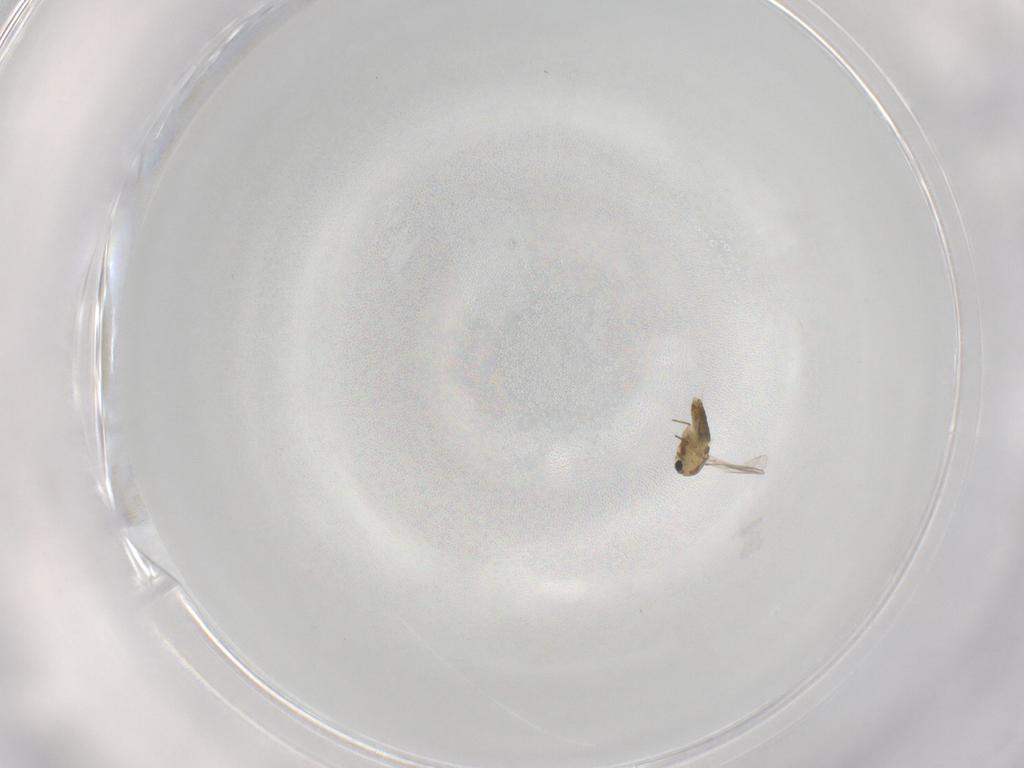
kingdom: Animalia
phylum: Arthropoda
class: Insecta
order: Diptera
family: Chironomidae
